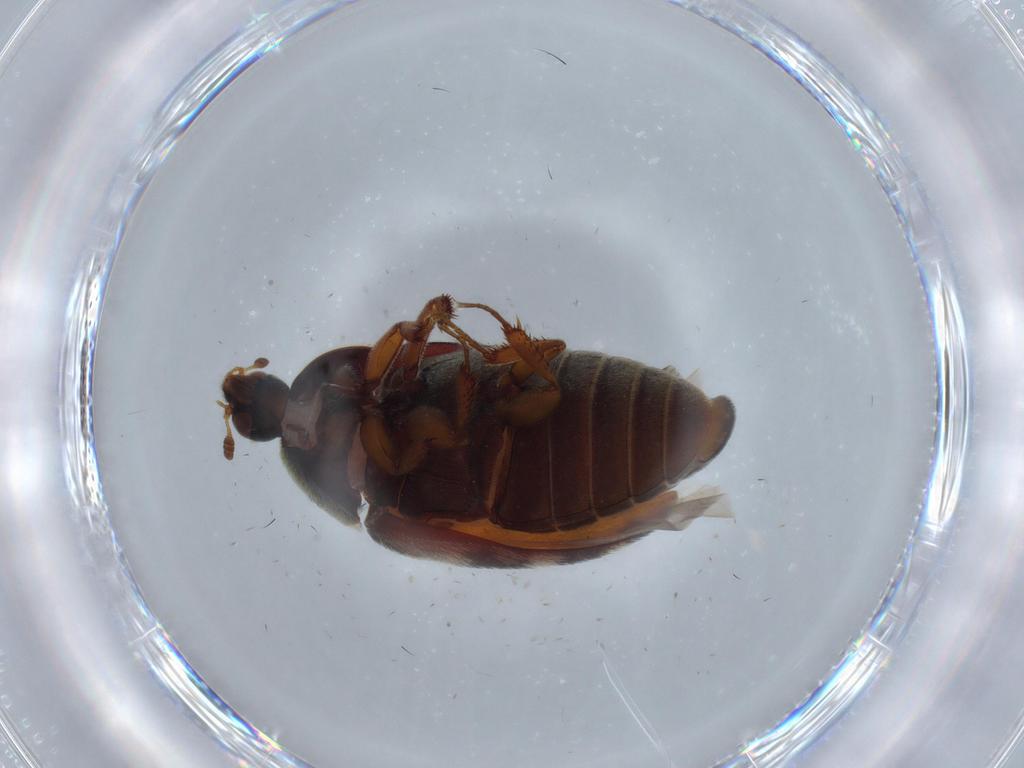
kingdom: Animalia
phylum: Arthropoda
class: Insecta
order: Coleoptera
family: Dermestidae
